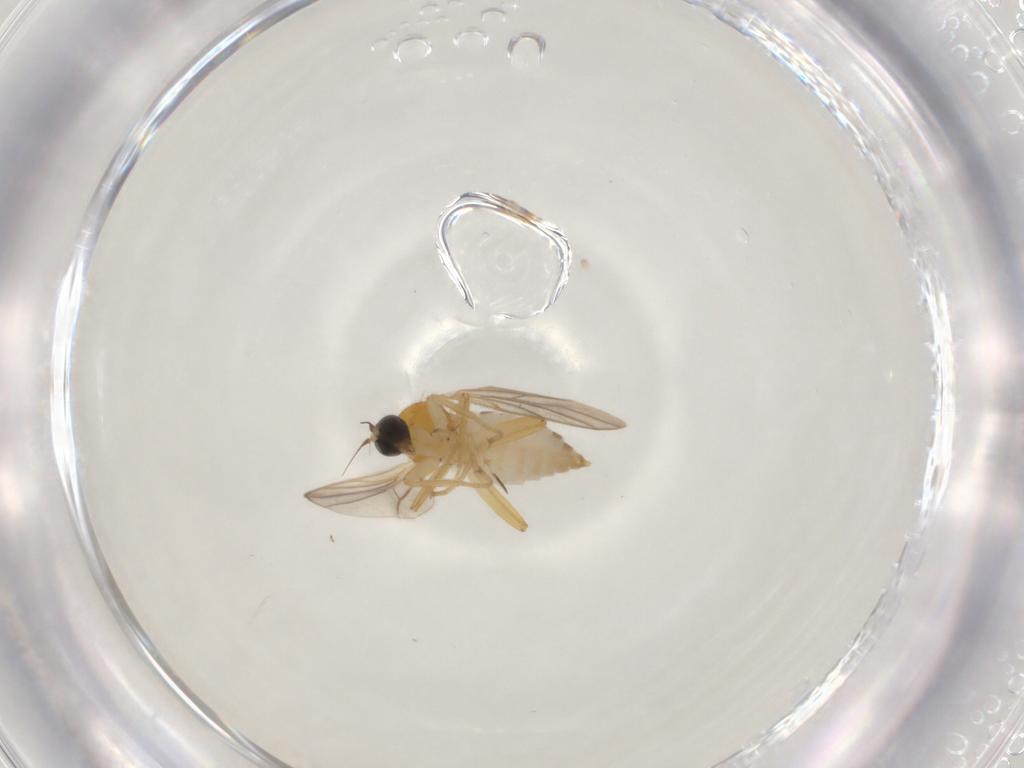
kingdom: Animalia
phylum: Arthropoda
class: Insecta
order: Diptera
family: Hybotidae
